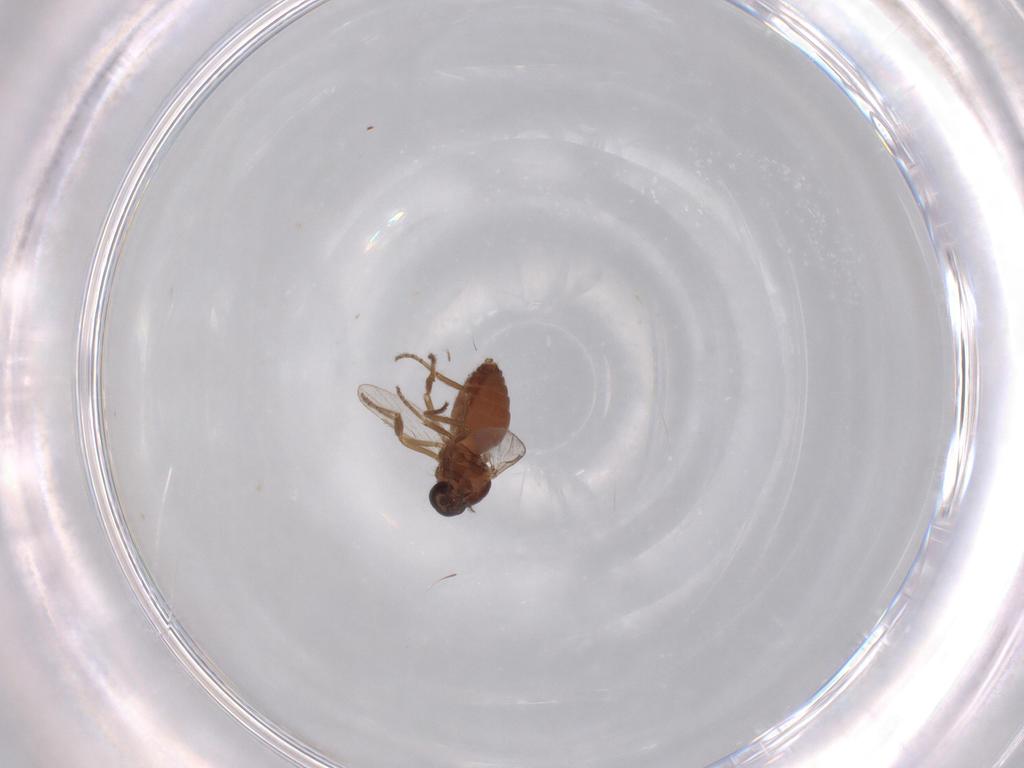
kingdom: Animalia
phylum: Arthropoda
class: Insecta
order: Diptera
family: Ceratopogonidae
